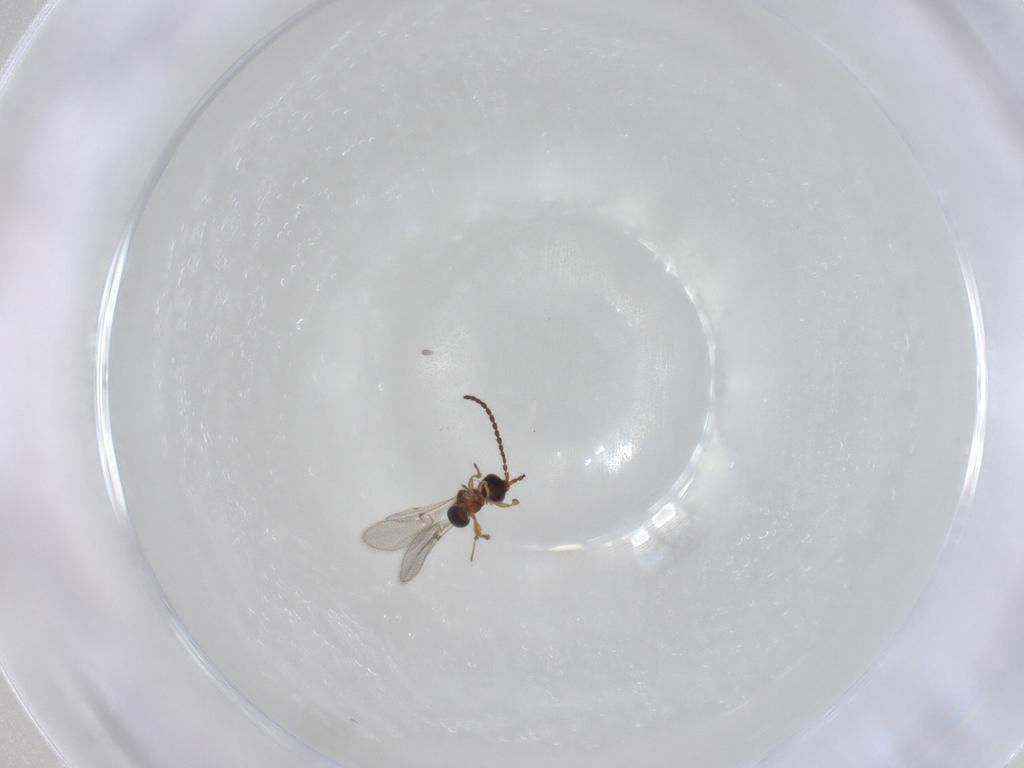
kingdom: Animalia
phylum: Arthropoda
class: Insecta
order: Hymenoptera
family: Diapriidae
